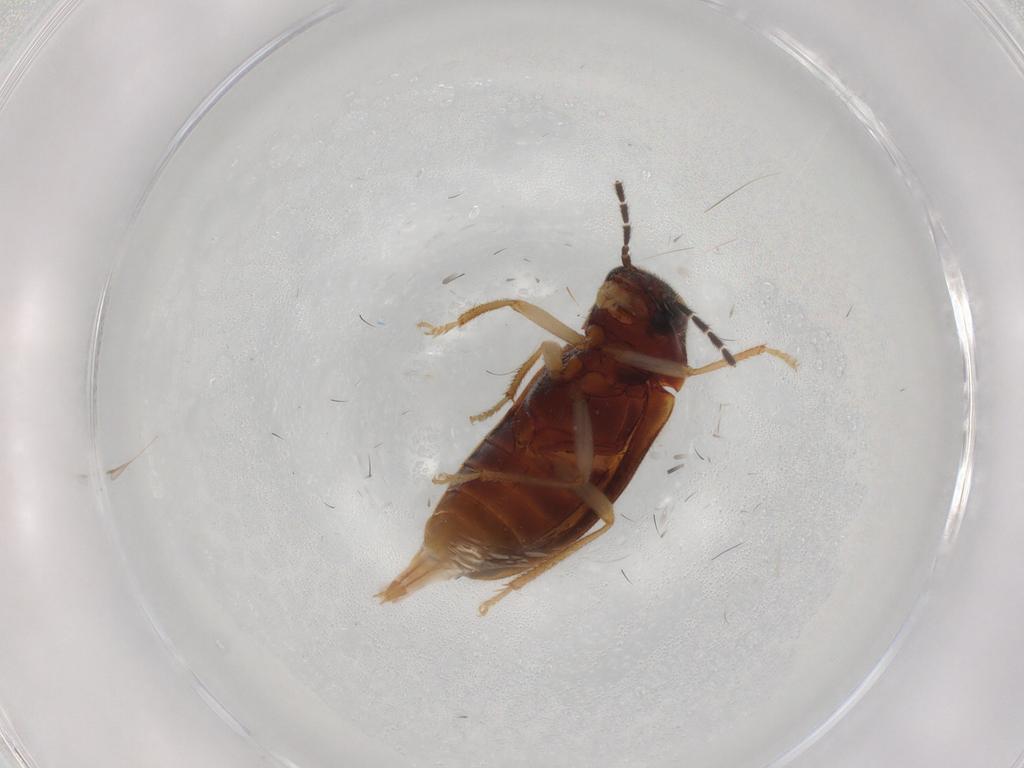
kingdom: Animalia
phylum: Arthropoda
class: Insecta
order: Coleoptera
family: Ptilodactylidae
